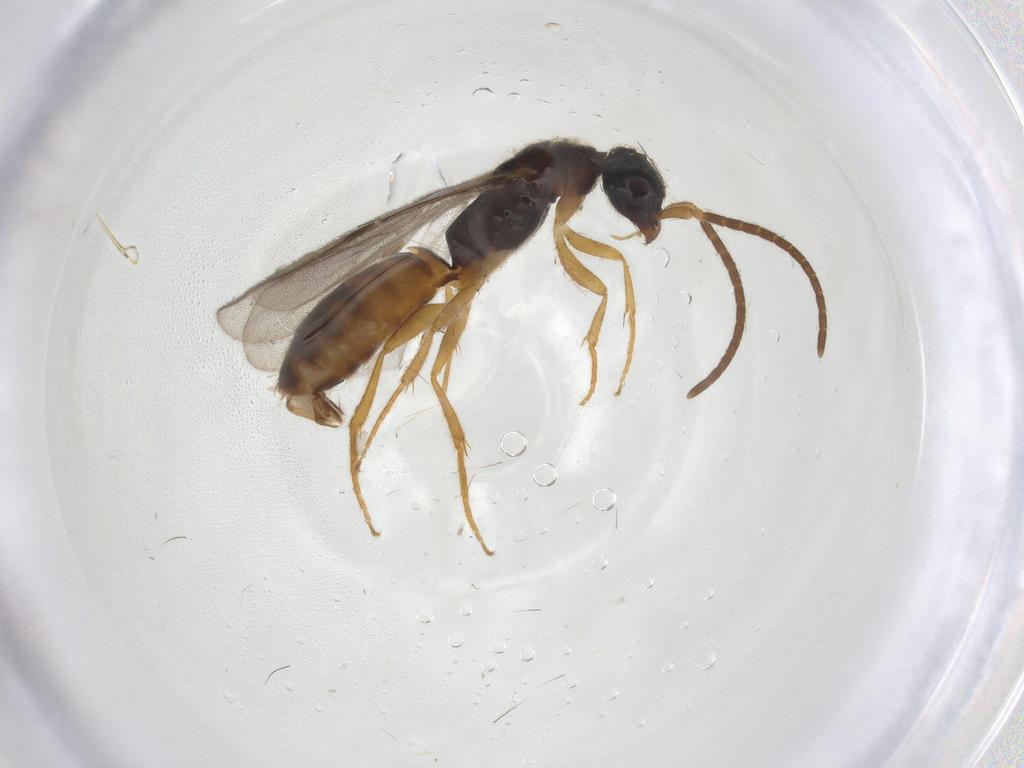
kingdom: Animalia
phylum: Arthropoda
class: Insecta
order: Hymenoptera
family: Bethylidae
